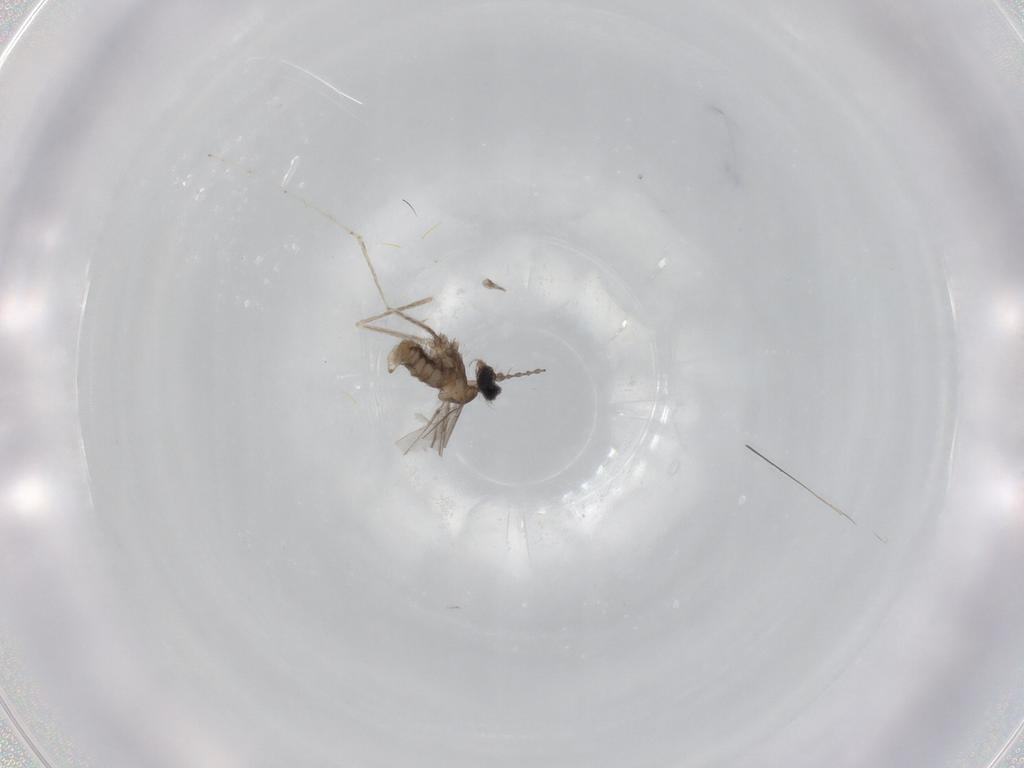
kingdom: Animalia
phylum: Arthropoda
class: Insecta
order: Diptera
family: Cecidomyiidae
